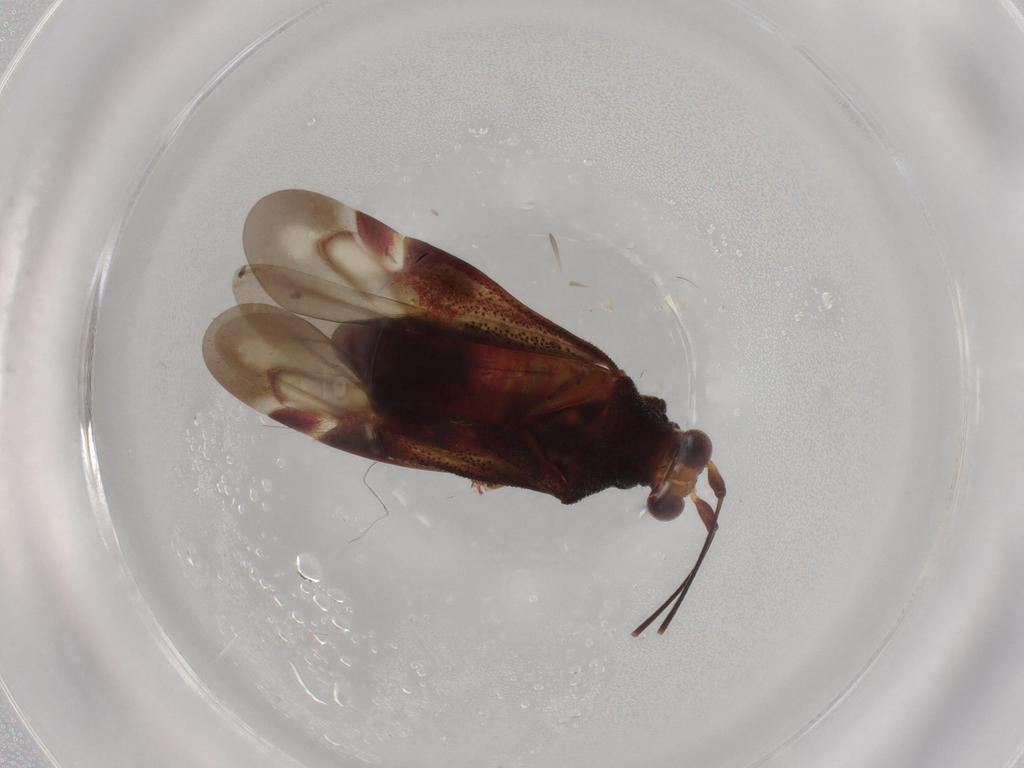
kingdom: Animalia
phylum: Arthropoda
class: Insecta
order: Hemiptera
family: Miridae
